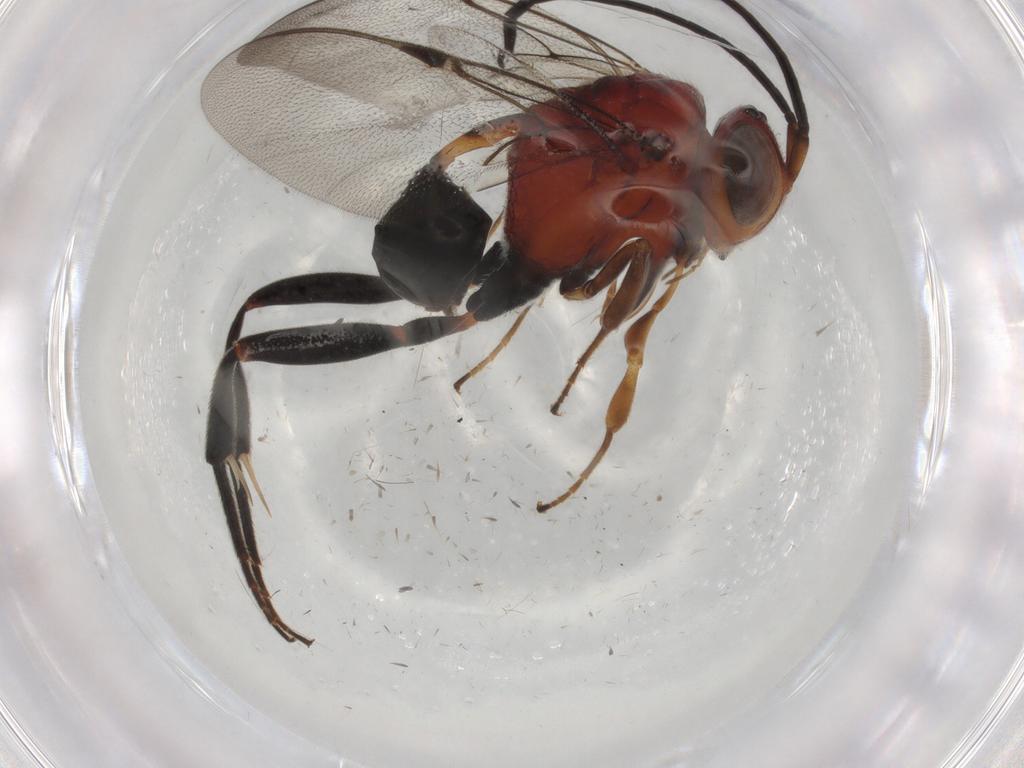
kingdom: Animalia
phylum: Arthropoda
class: Insecta
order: Hymenoptera
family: Evaniidae
